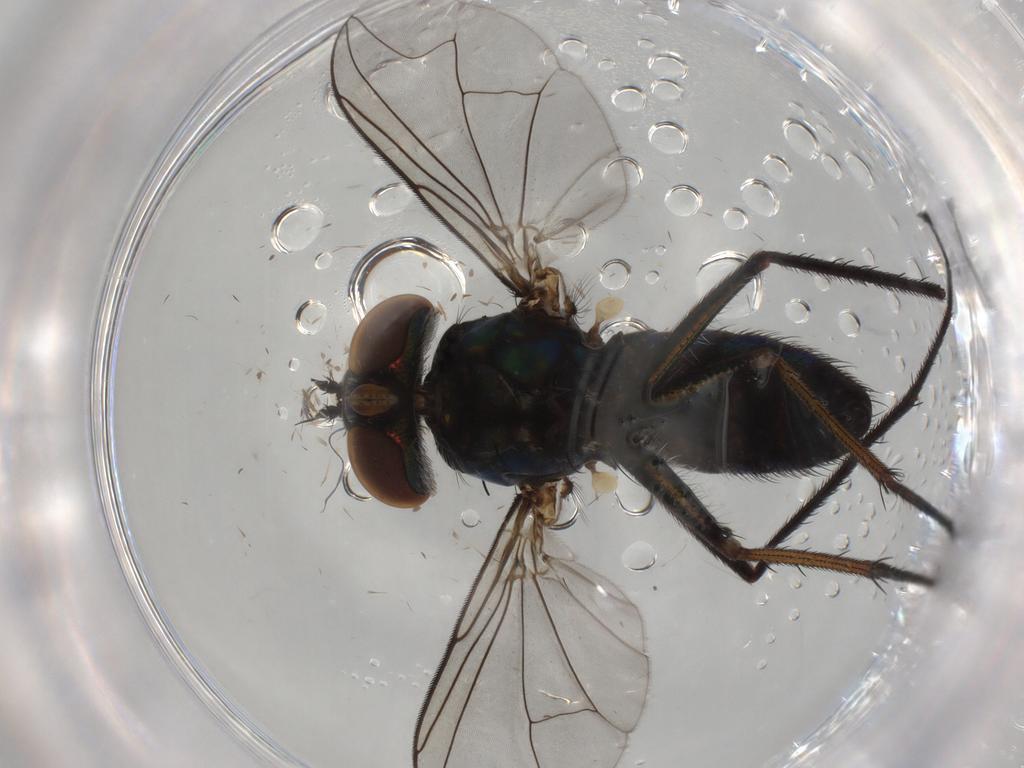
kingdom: Animalia
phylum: Arthropoda
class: Insecta
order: Diptera
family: Dolichopodidae
